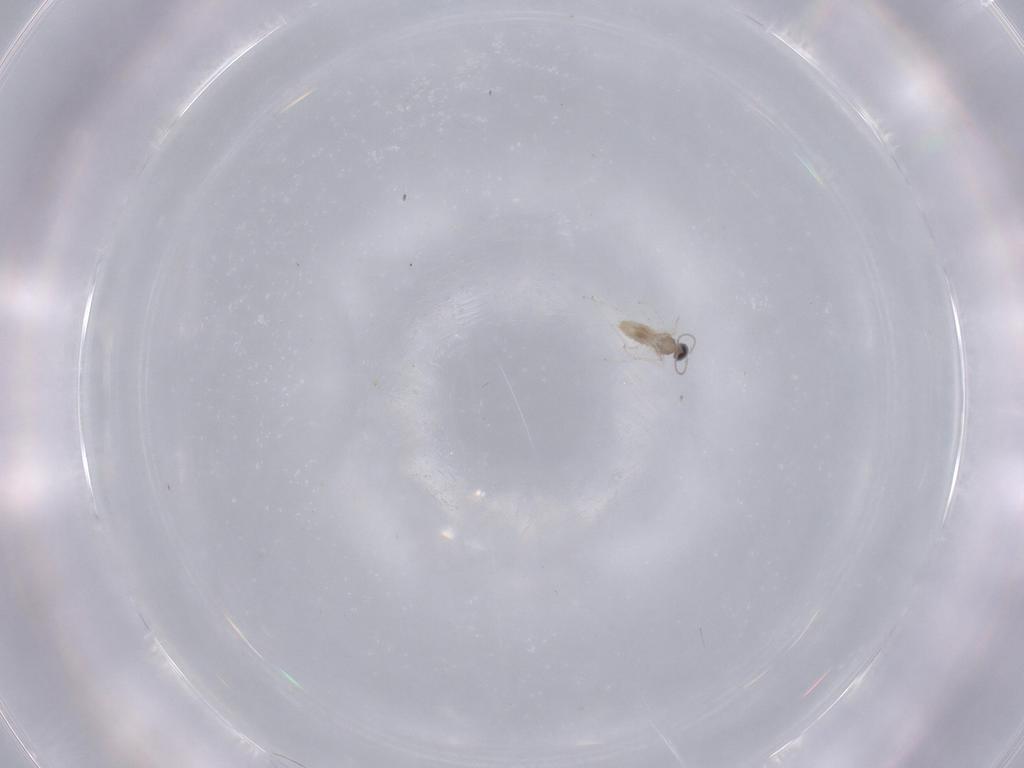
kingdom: Animalia
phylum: Arthropoda
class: Insecta
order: Diptera
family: Cecidomyiidae
